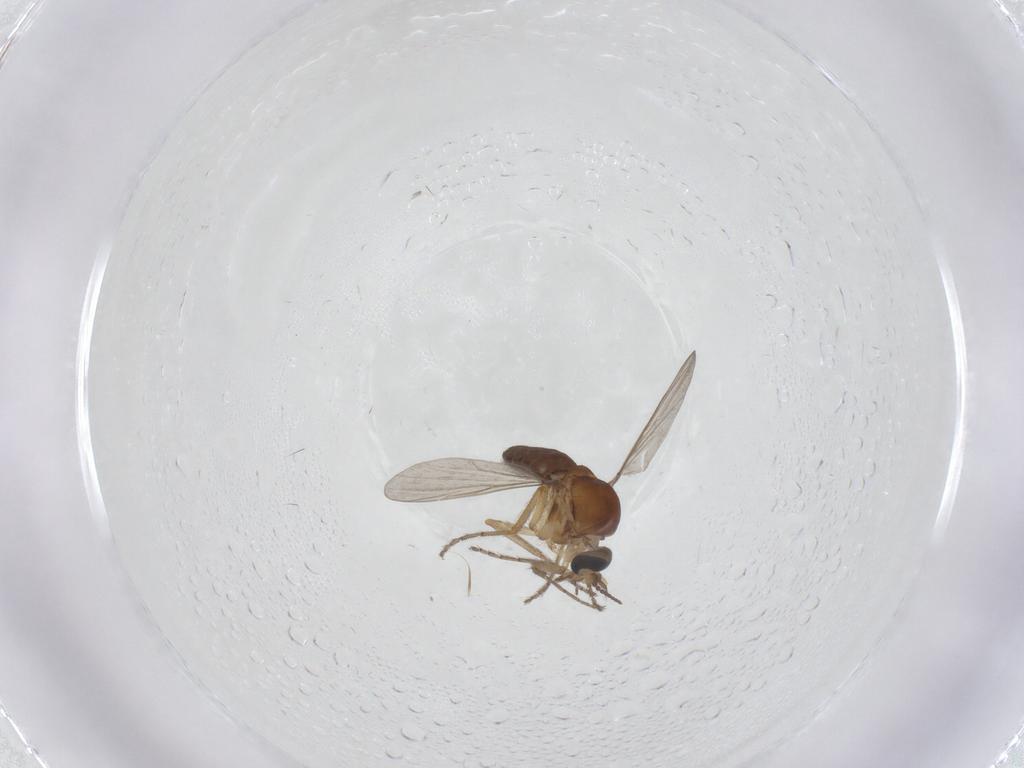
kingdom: Animalia
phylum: Arthropoda
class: Insecta
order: Diptera
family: Ceratopogonidae
